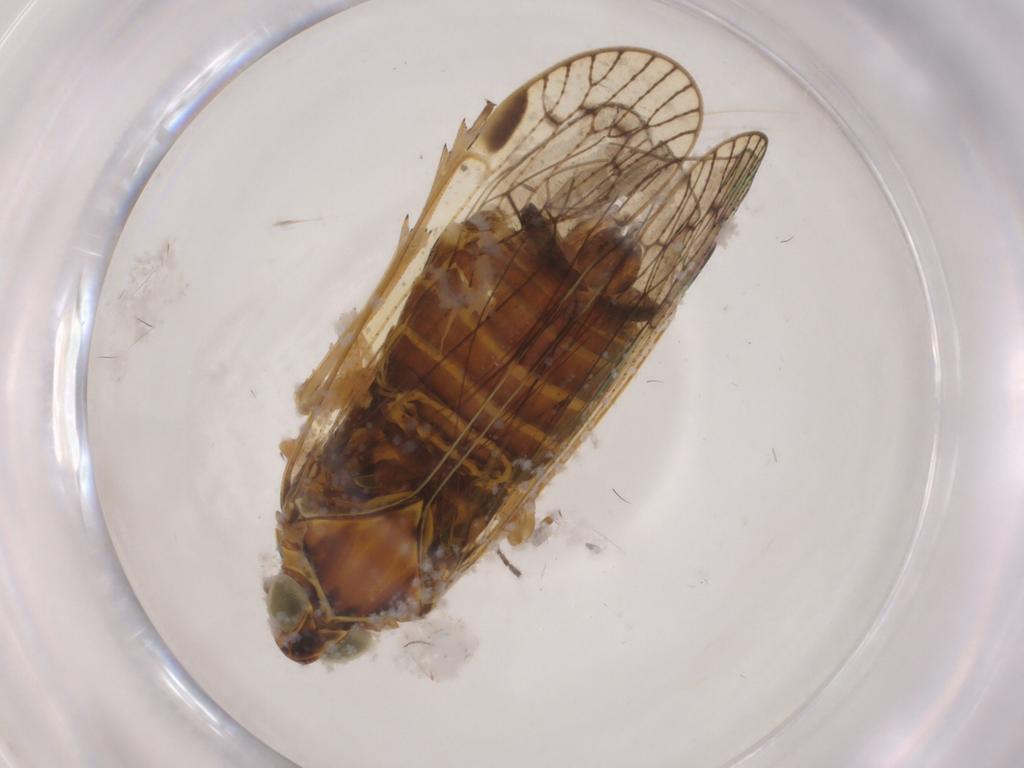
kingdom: Animalia
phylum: Arthropoda
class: Insecta
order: Hemiptera
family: Cixiidae
